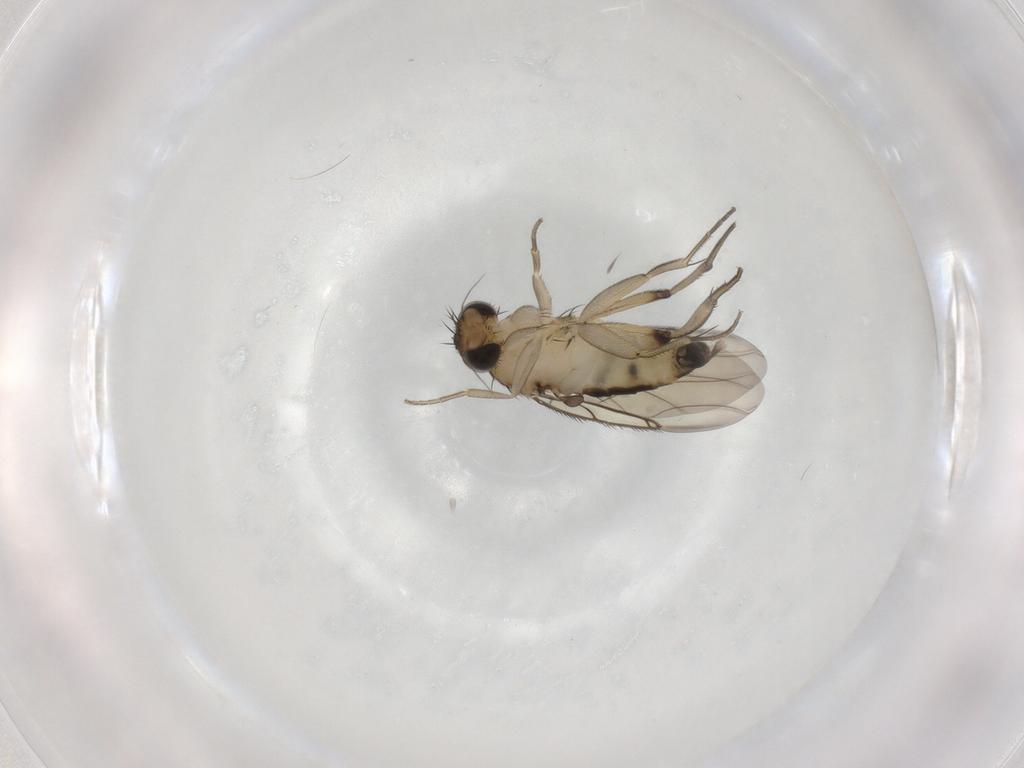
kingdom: Animalia
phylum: Arthropoda
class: Insecta
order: Diptera
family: Phoridae
